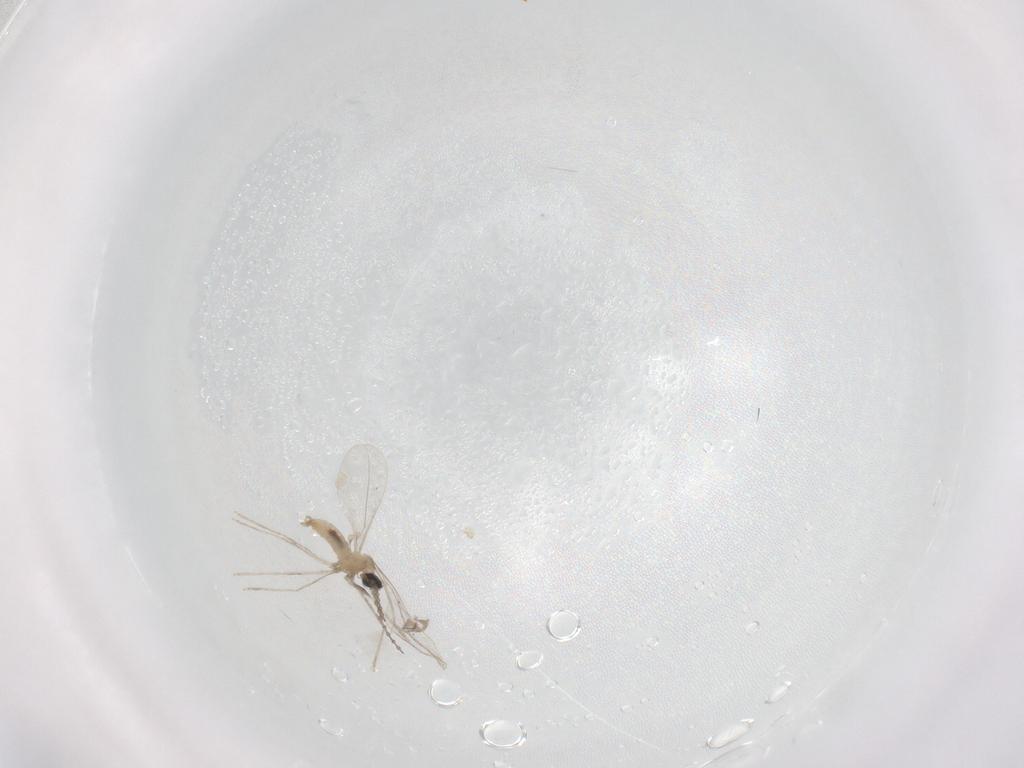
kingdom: Animalia
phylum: Arthropoda
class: Insecta
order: Diptera
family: Cecidomyiidae
